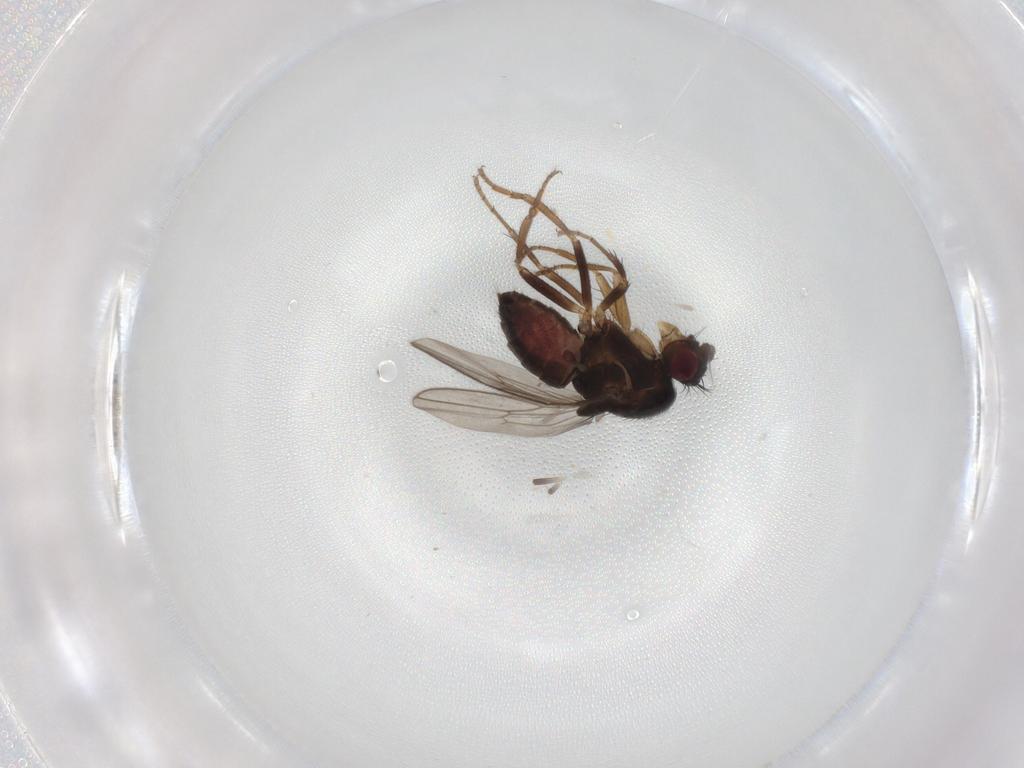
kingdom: Animalia
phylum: Arthropoda
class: Insecta
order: Diptera
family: Sphaeroceridae
